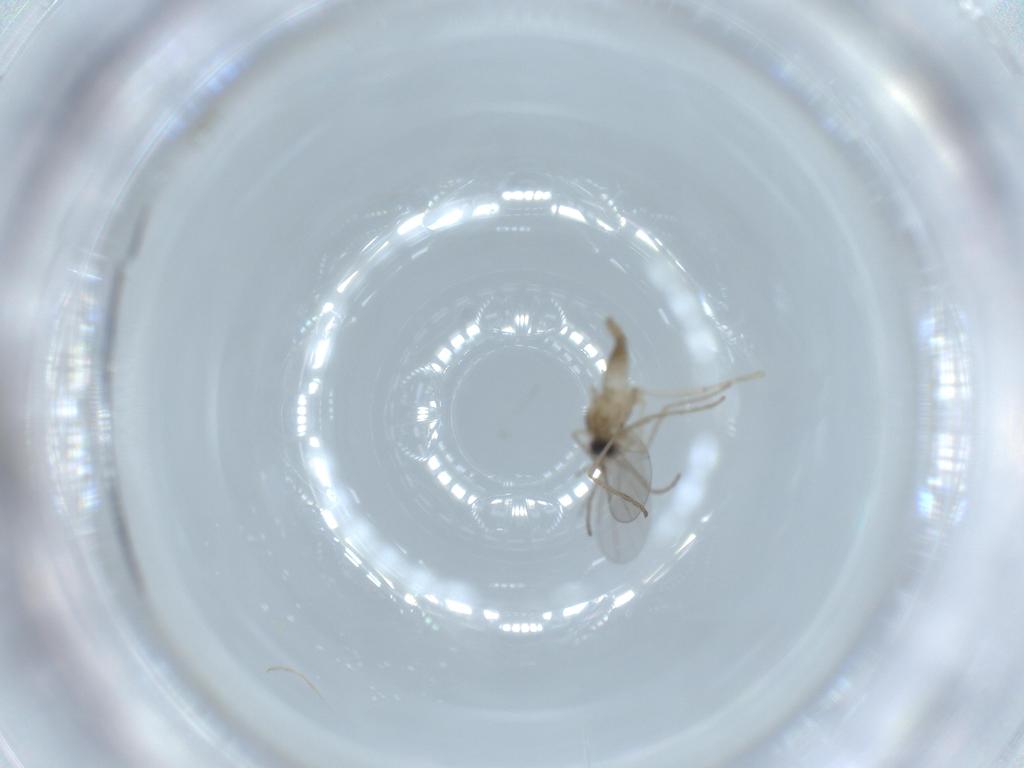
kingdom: Animalia
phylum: Arthropoda
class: Insecta
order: Diptera
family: Cecidomyiidae
